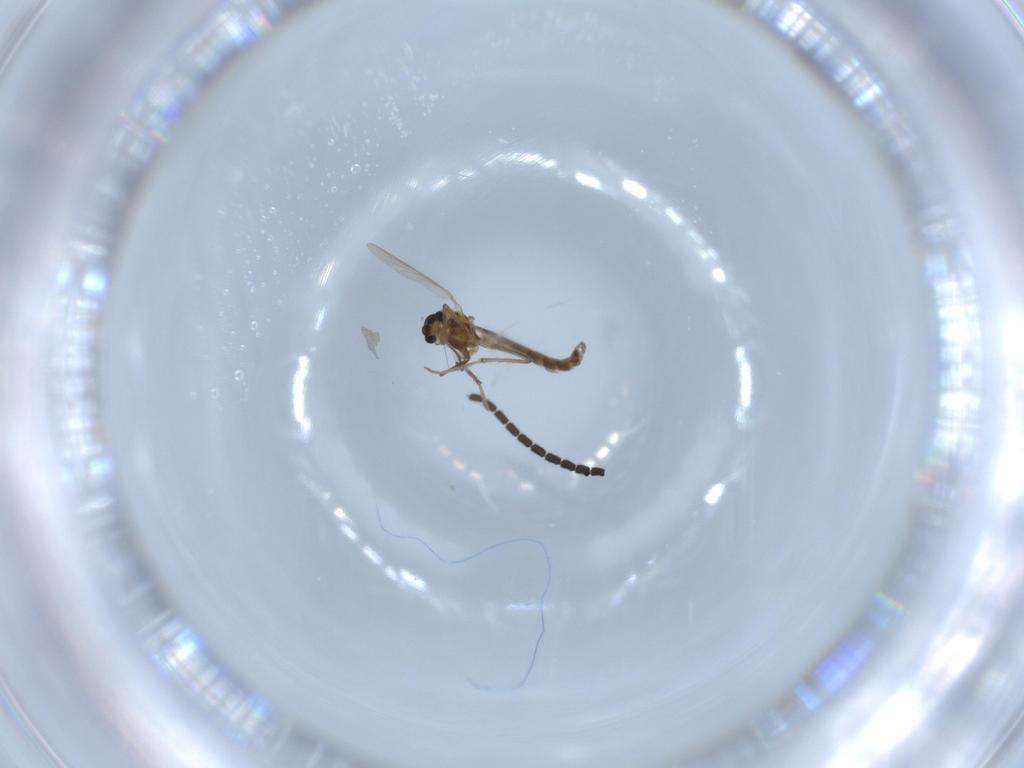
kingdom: Animalia
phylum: Arthropoda
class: Insecta
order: Diptera
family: Chironomidae
